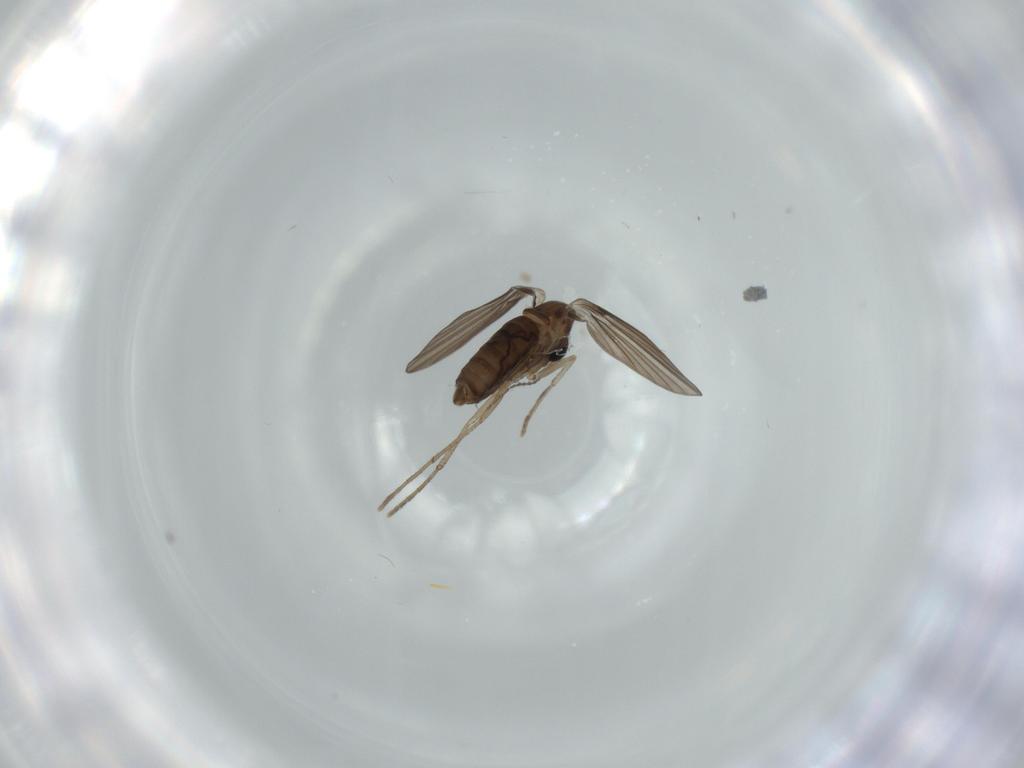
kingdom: Animalia
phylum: Arthropoda
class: Insecta
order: Diptera
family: Psychodidae
